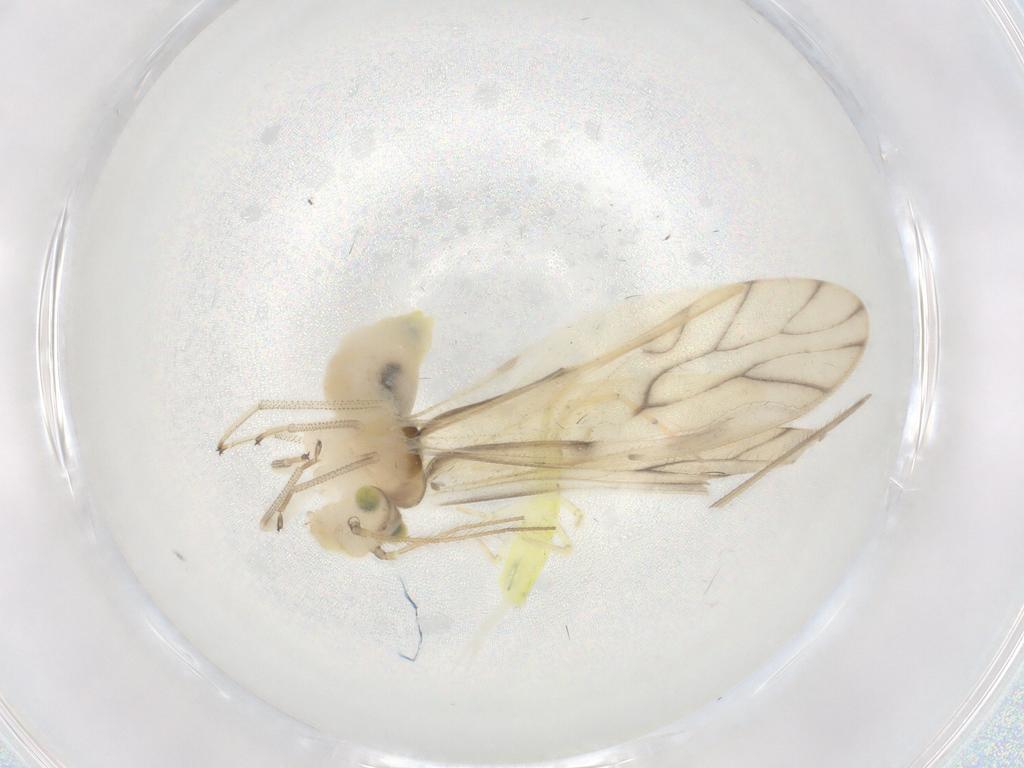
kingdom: Animalia
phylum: Arthropoda
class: Insecta
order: Psocodea
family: Caeciliusidae
